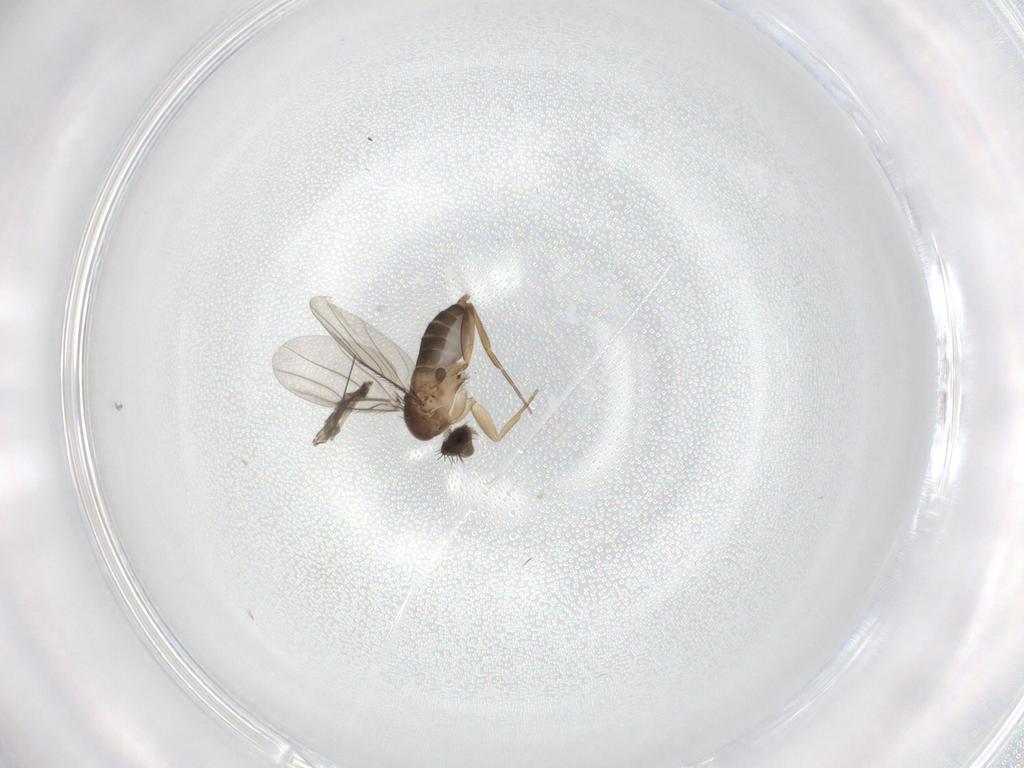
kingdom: Animalia
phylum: Arthropoda
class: Insecta
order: Diptera
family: Phoridae
